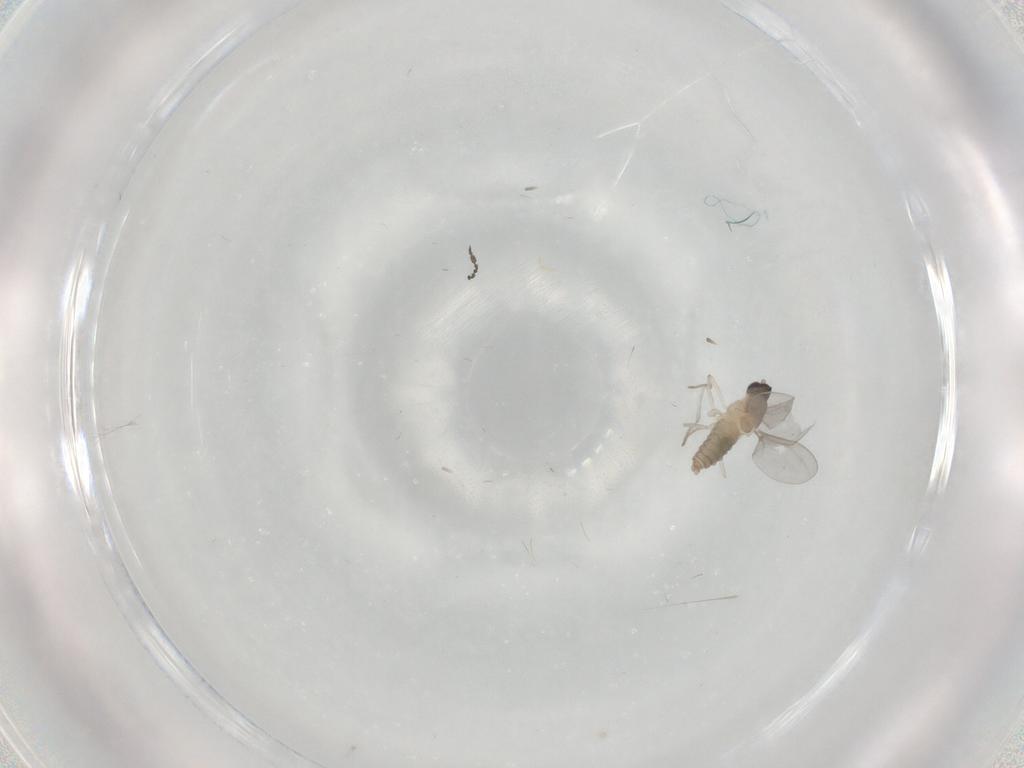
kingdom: Animalia
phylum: Arthropoda
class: Insecta
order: Diptera
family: Cecidomyiidae
